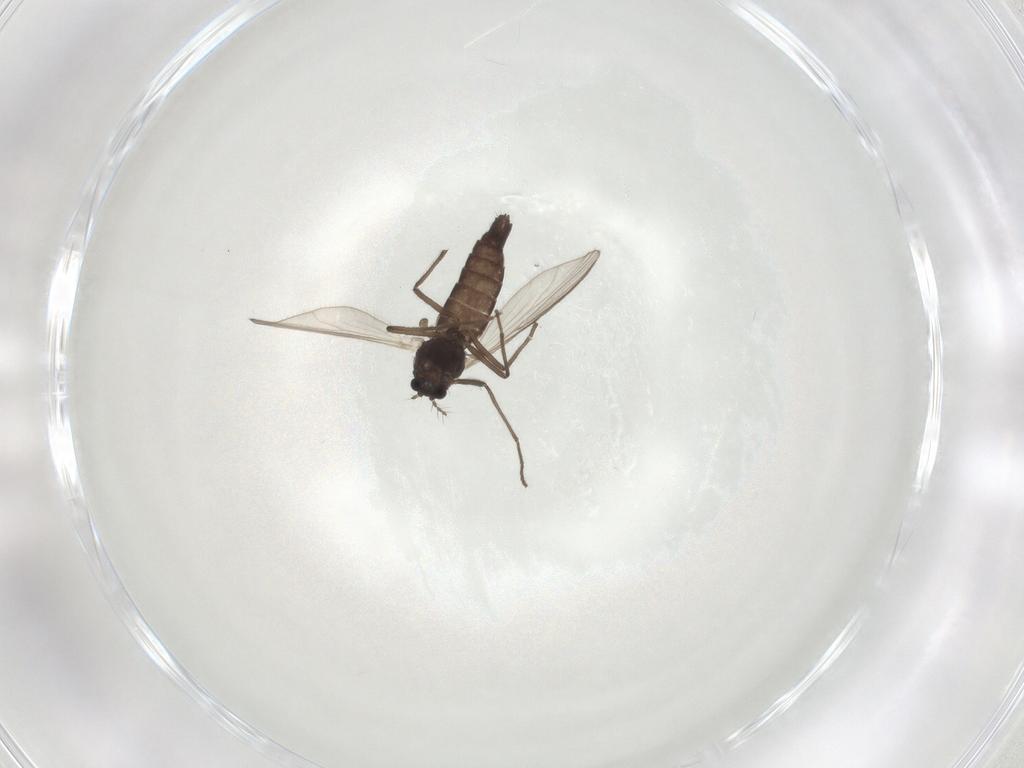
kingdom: Animalia
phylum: Arthropoda
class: Insecta
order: Diptera
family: Chironomidae
